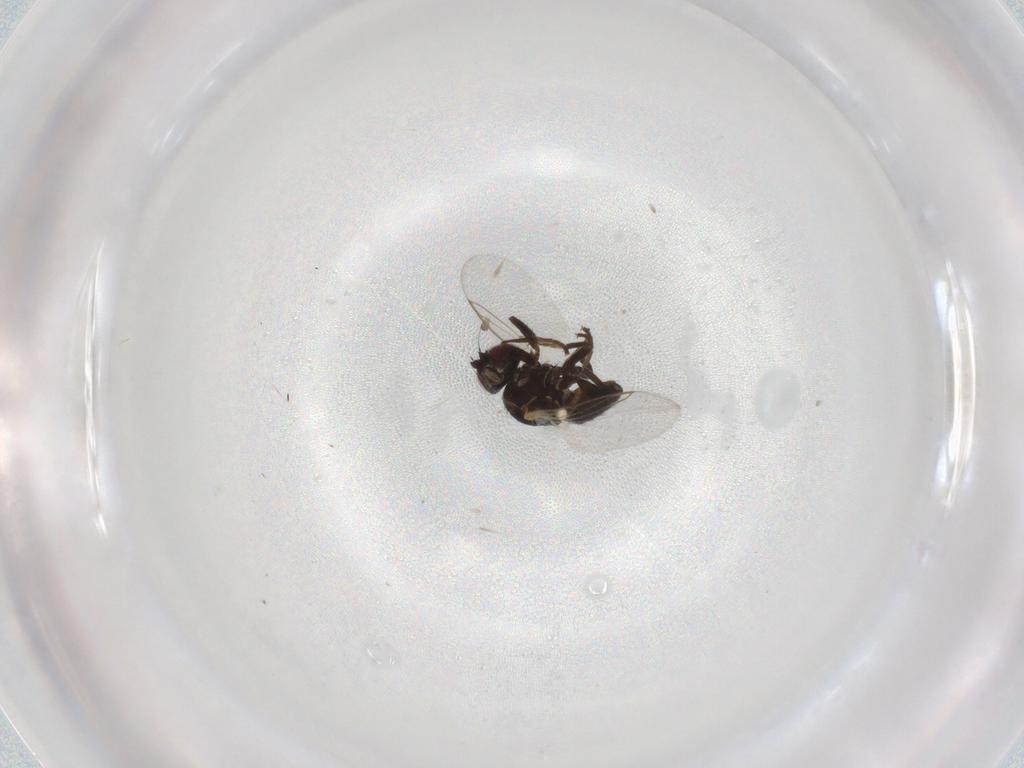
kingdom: Animalia
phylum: Arthropoda
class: Insecta
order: Diptera
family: Agromyzidae
